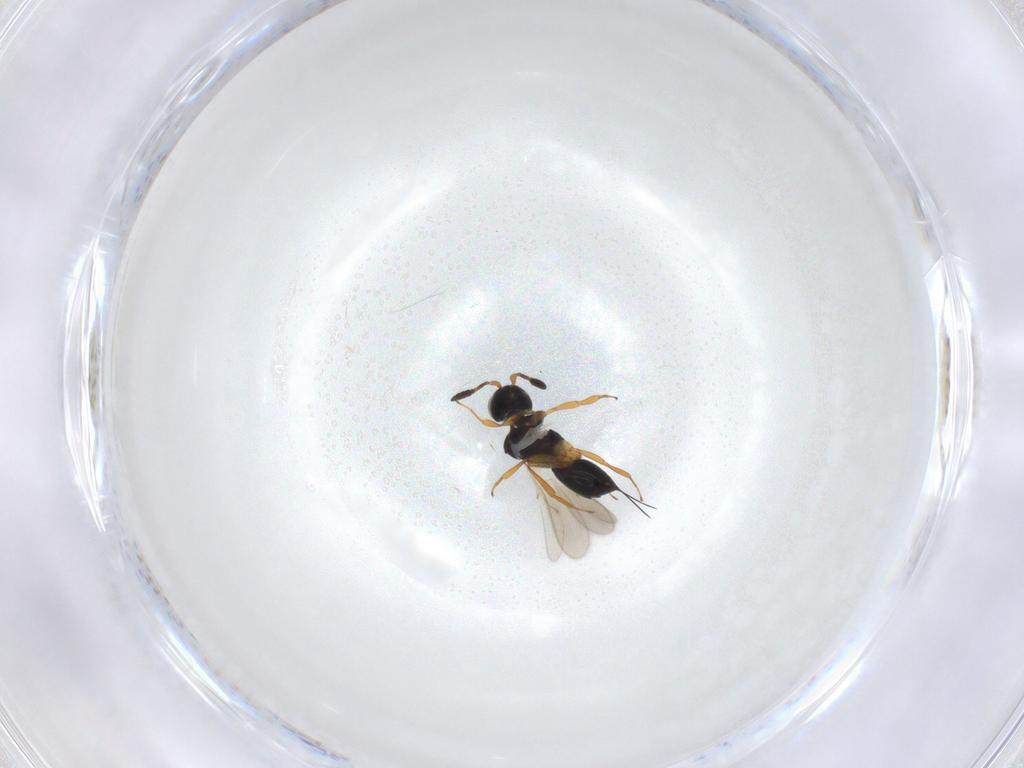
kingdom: Animalia
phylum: Arthropoda
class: Insecta
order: Hymenoptera
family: Scelionidae
